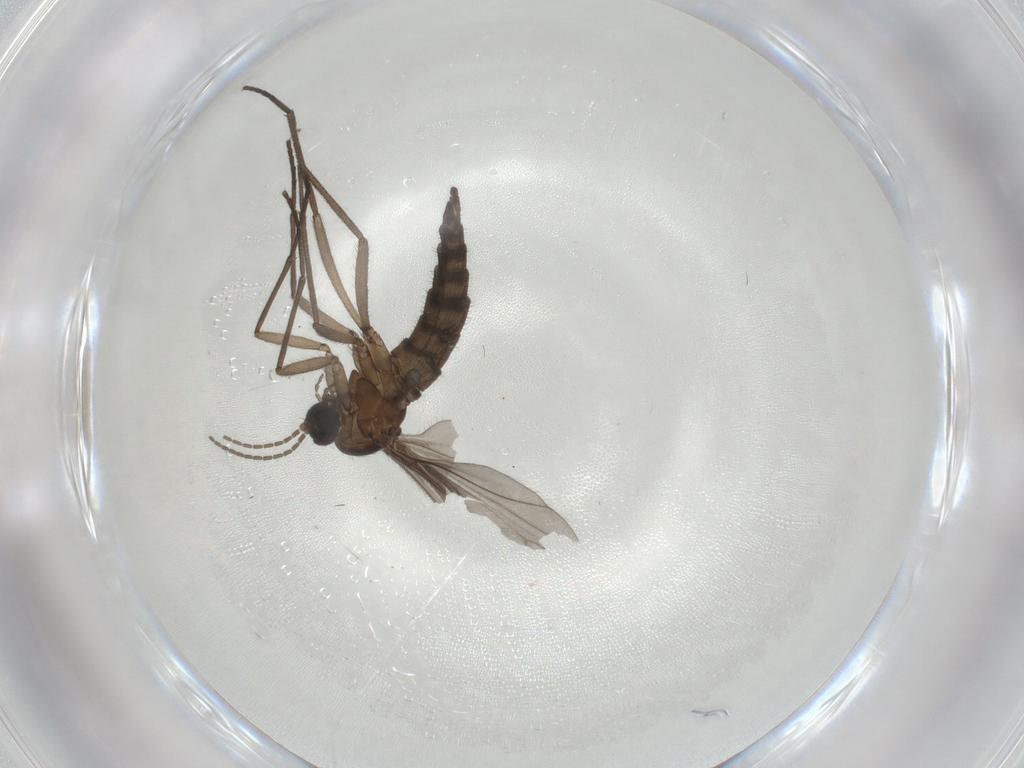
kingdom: Animalia
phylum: Arthropoda
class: Insecta
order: Diptera
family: Sciaridae
